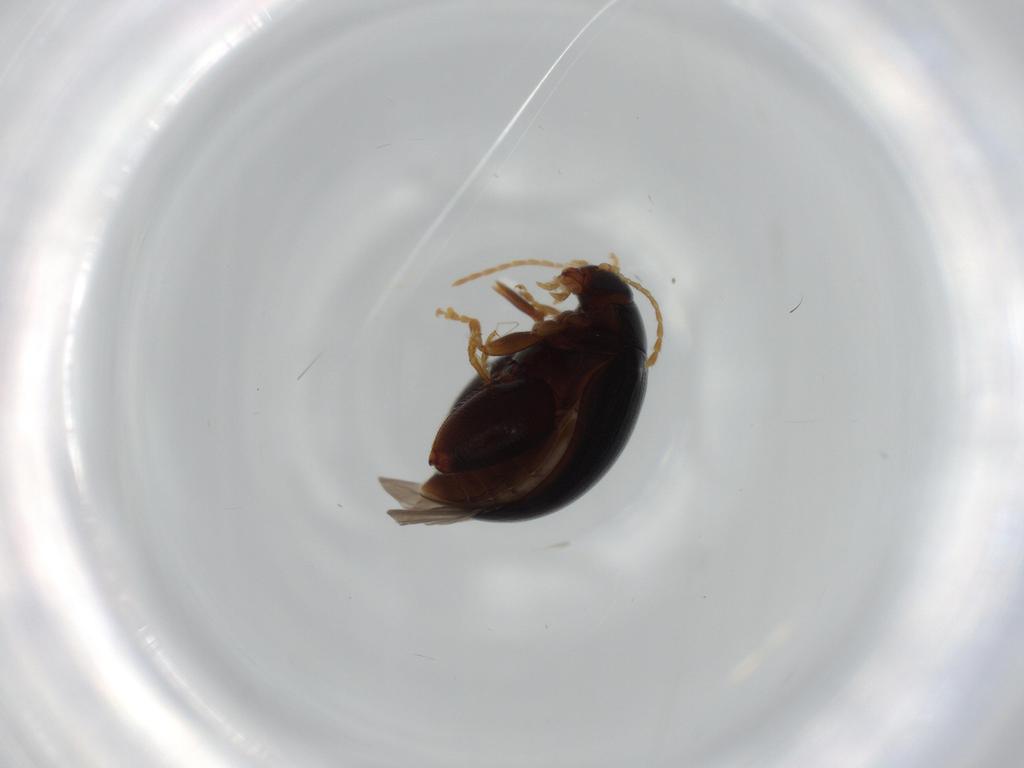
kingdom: Animalia
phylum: Arthropoda
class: Insecta
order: Coleoptera
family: Chrysomelidae
